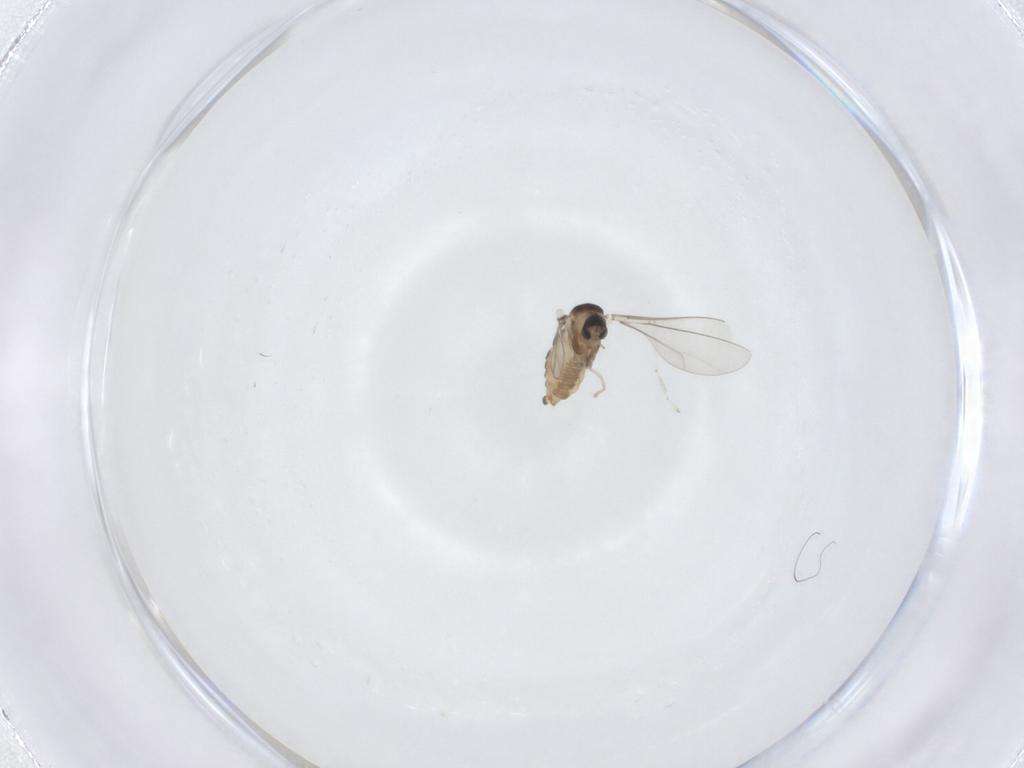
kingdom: Animalia
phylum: Arthropoda
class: Insecta
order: Diptera
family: Cecidomyiidae
